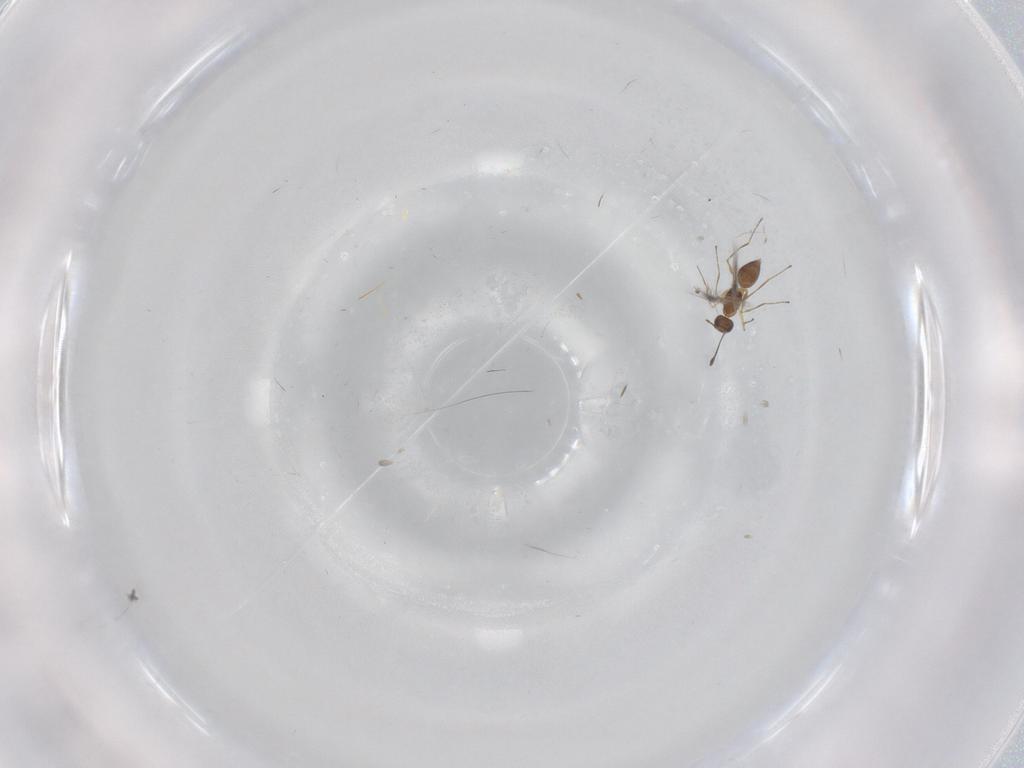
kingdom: Animalia
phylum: Arthropoda
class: Insecta
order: Hymenoptera
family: Mymaridae
